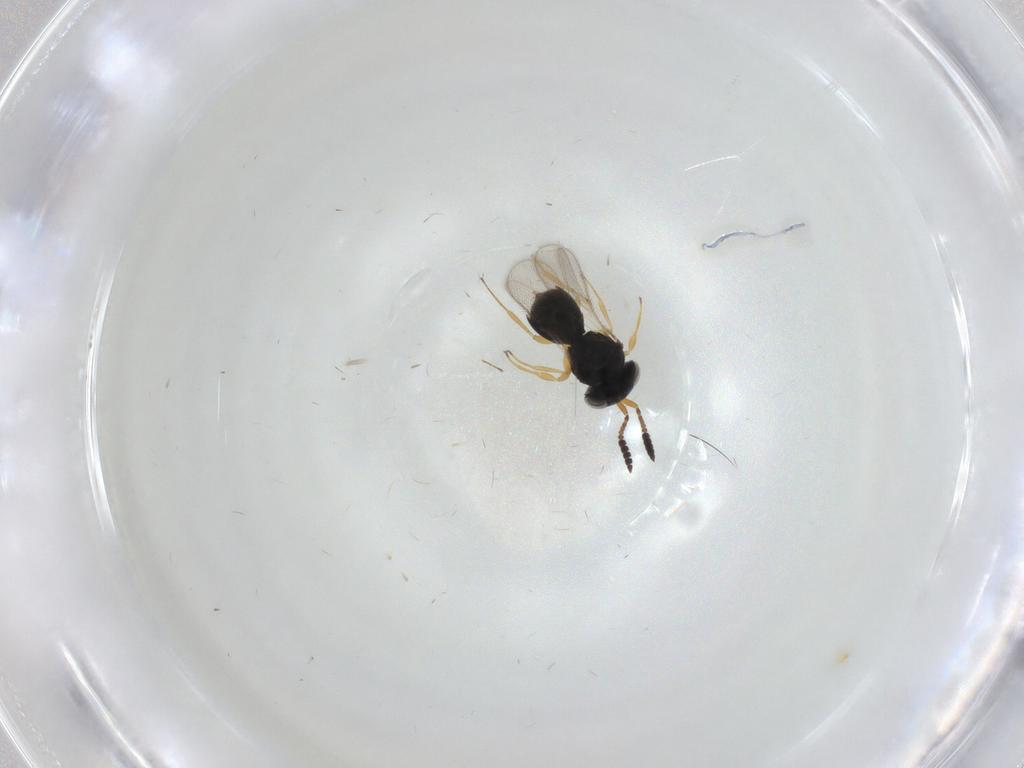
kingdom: Animalia
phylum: Arthropoda
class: Insecta
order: Hymenoptera
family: Scelionidae
